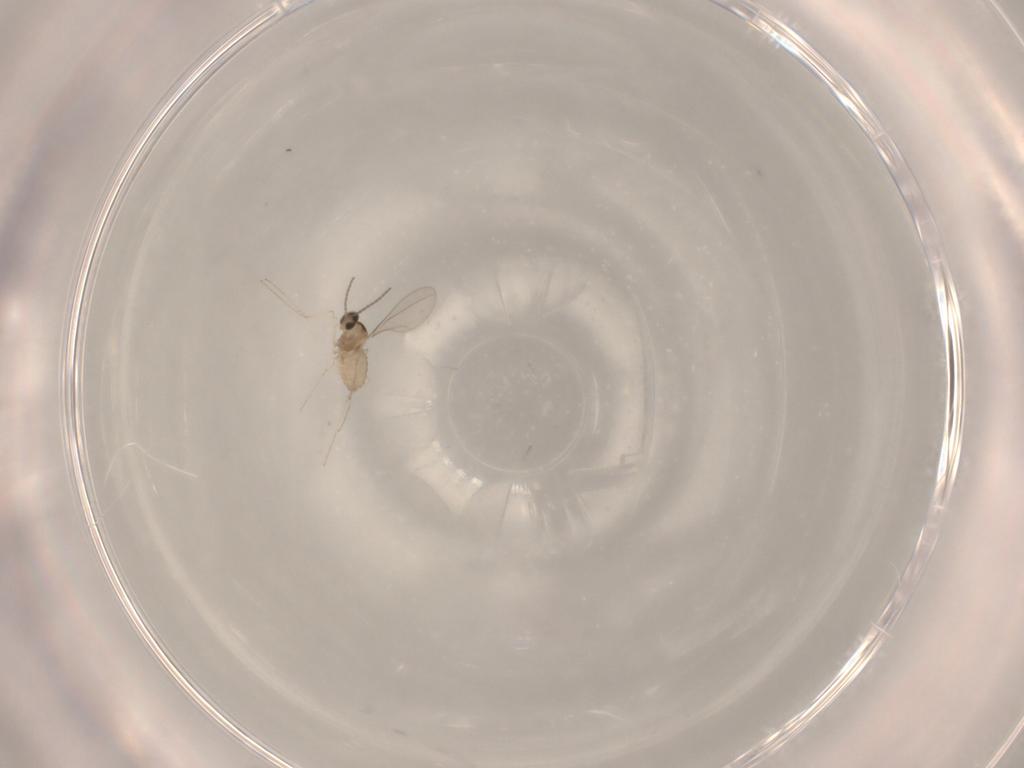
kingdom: Animalia
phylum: Arthropoda
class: Insecta
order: Diptera
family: Cecidomyiidae
